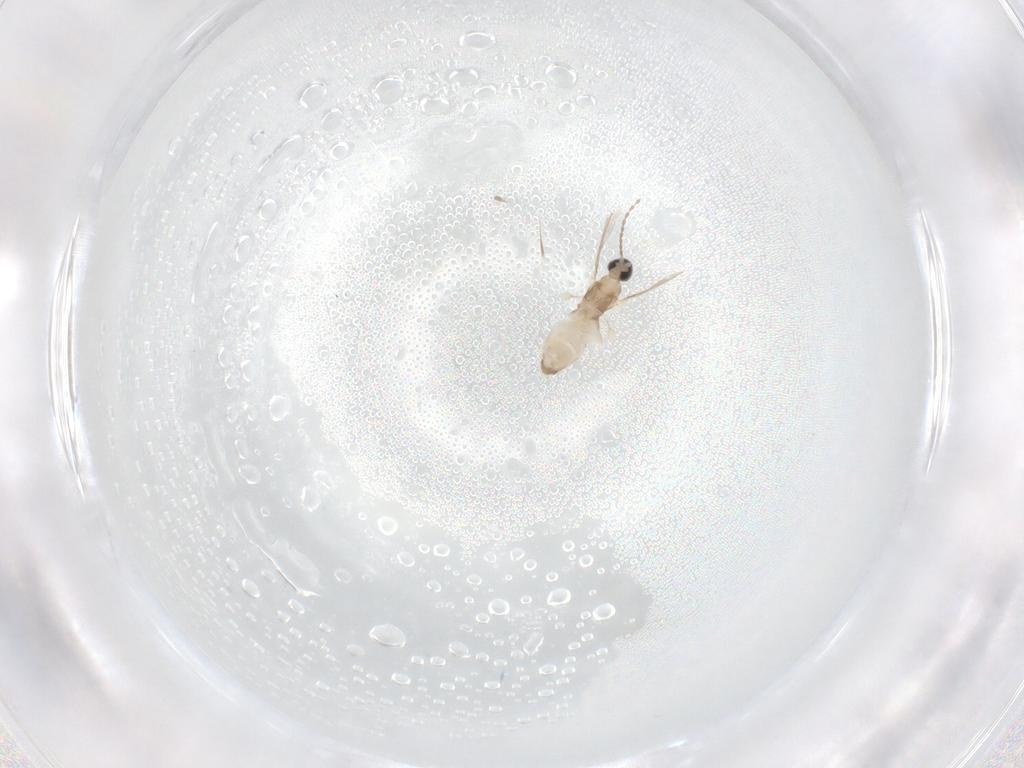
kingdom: Animalia
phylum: Arthropoda
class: Insecta
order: Diptera
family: Cecidomyiidae
